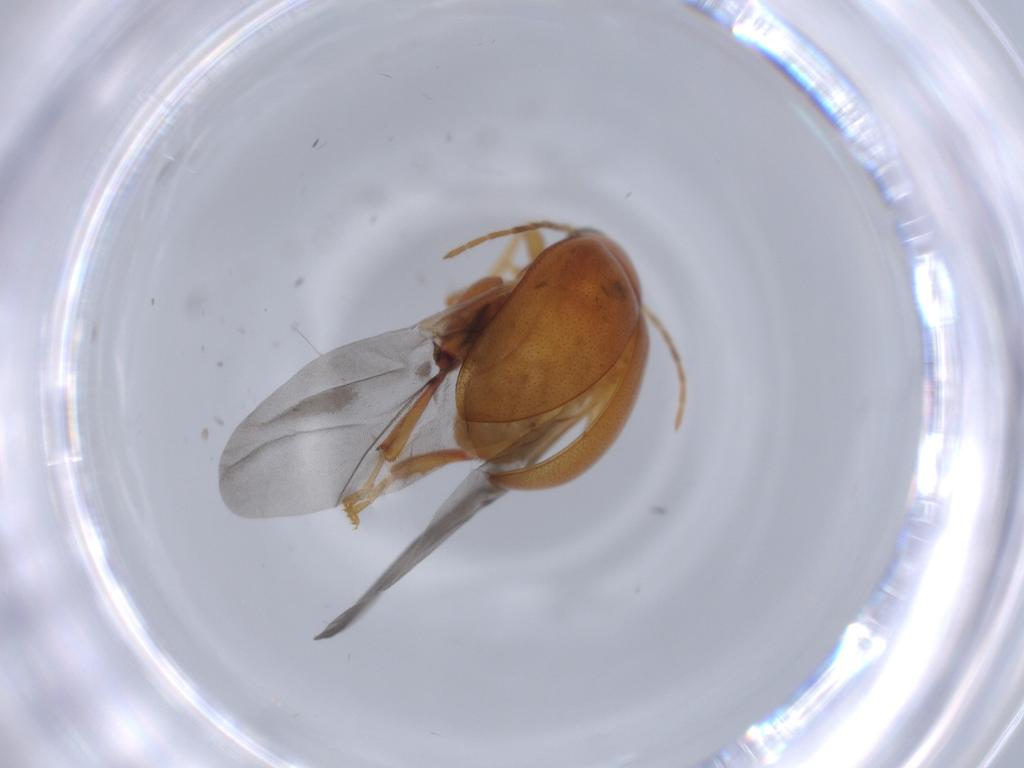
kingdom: Animalia
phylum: Arthropoda
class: Insecta
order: Coleoptera
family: Chrysomelidae
